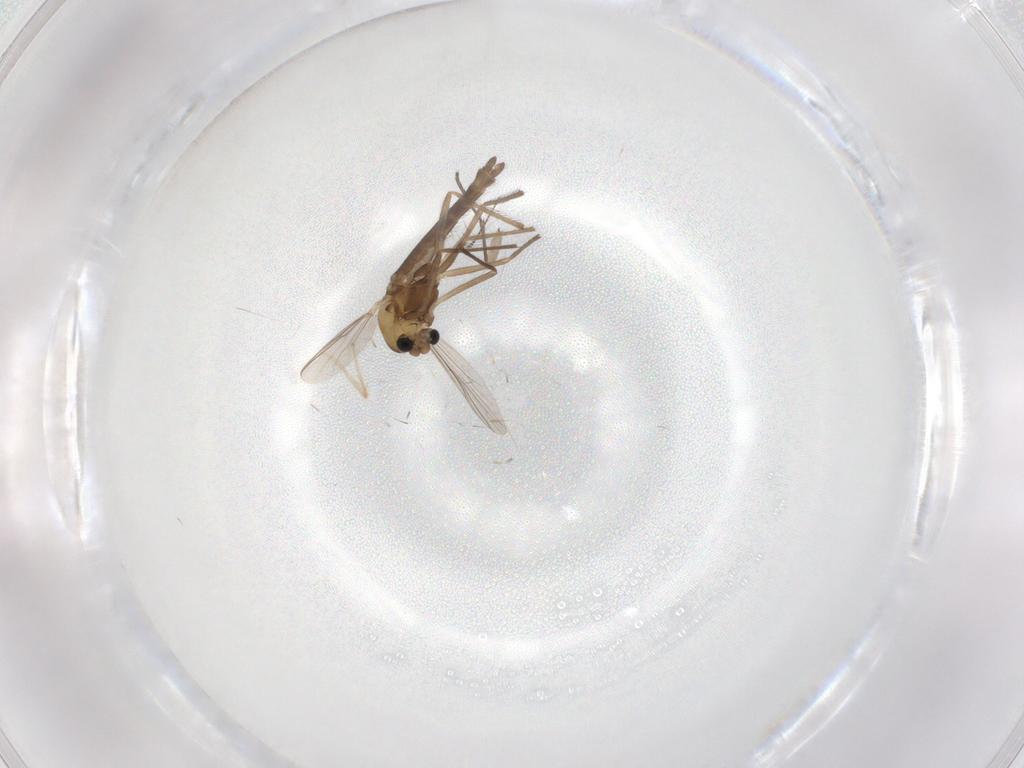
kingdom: Animalia
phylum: Arthropoda
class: Insecta
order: Diptera
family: Chironomidae
